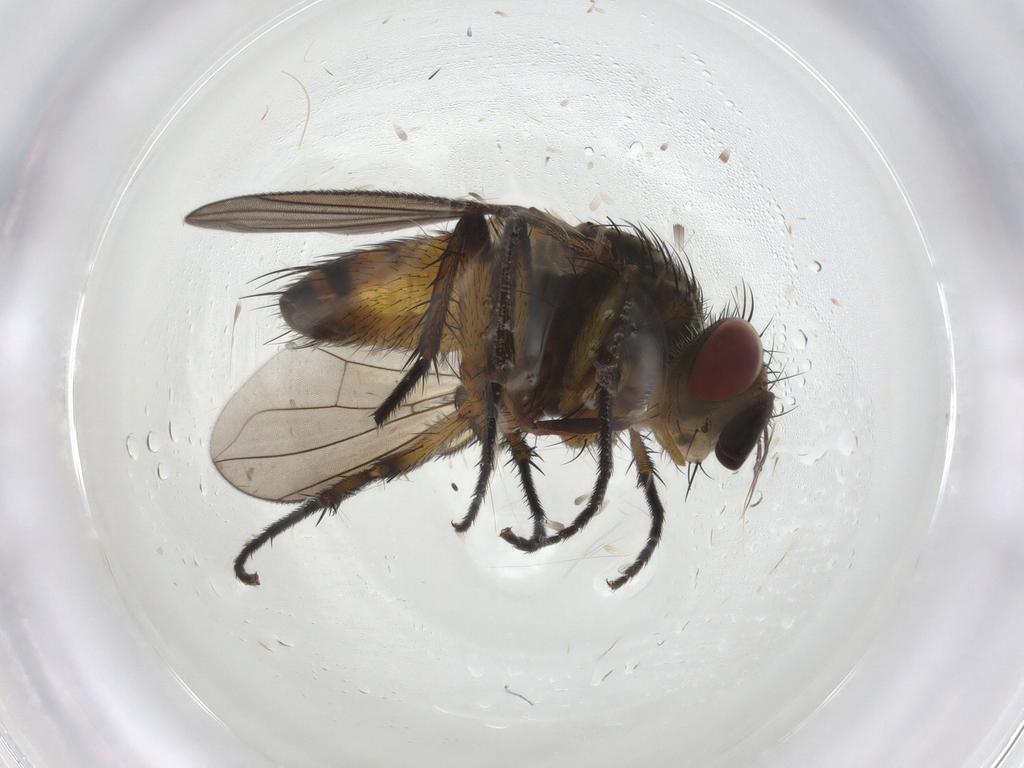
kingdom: Animalia
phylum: Arthropoda
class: Insecta
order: Diptera
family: Tachinidae
